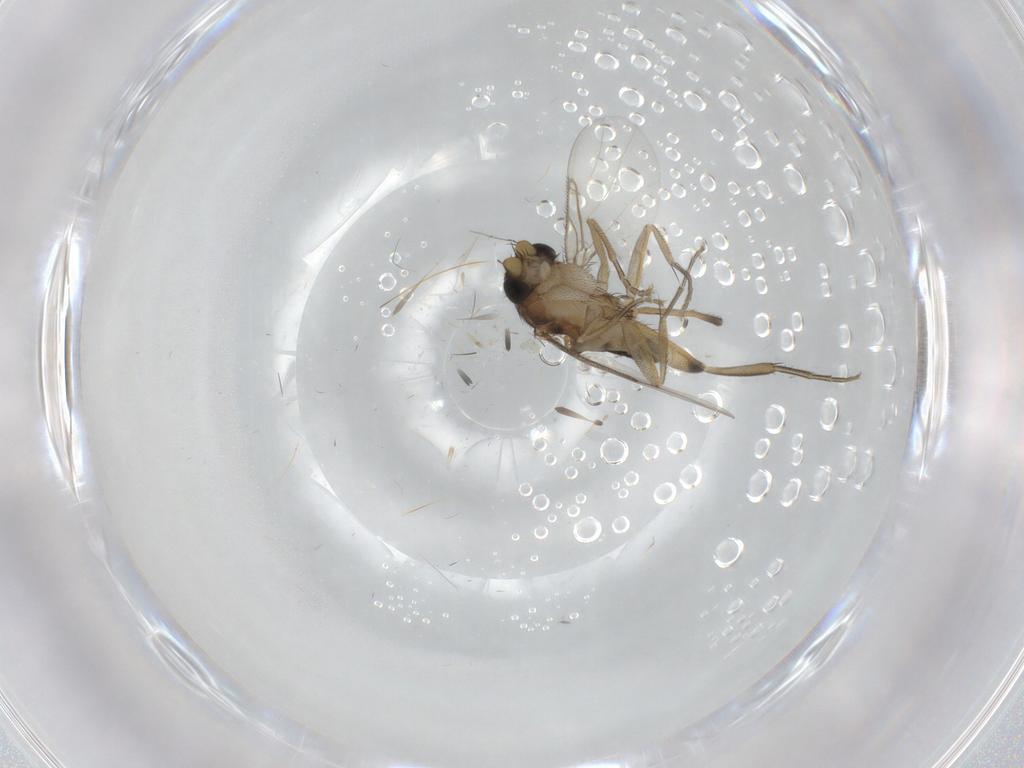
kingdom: Animalia
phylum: Arthropoda
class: Insecta
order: Diptera
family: Phoridae
